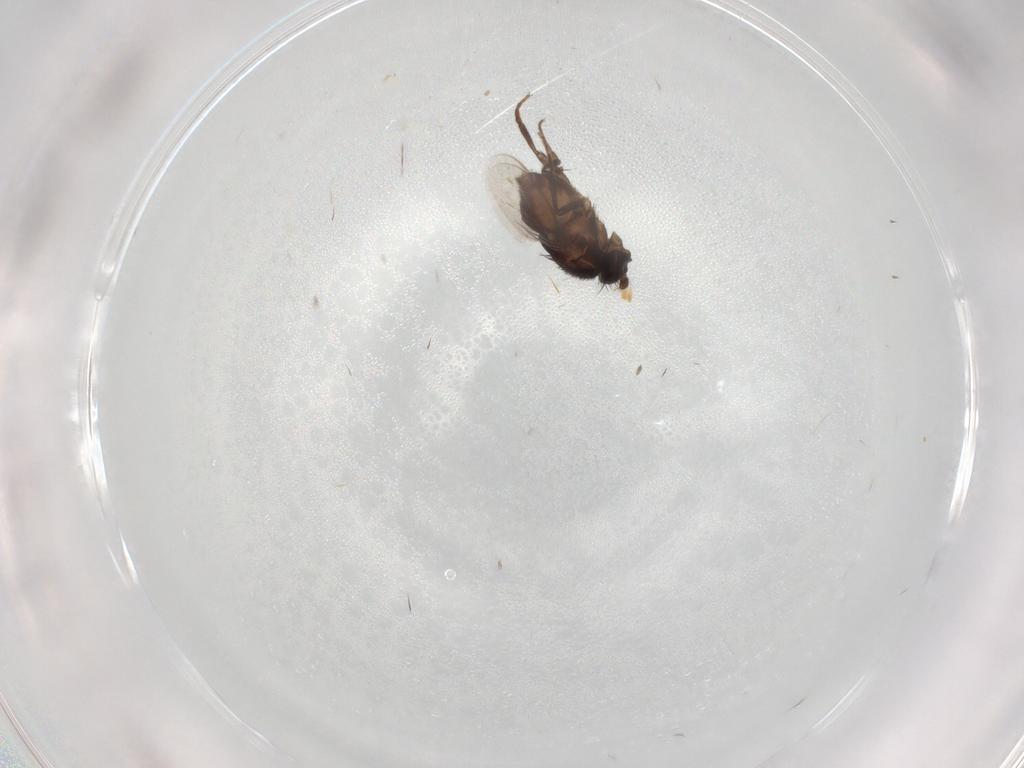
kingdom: Animalia
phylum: Arthropoda
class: Insecta
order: Diptera
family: Sphaeroceridae
